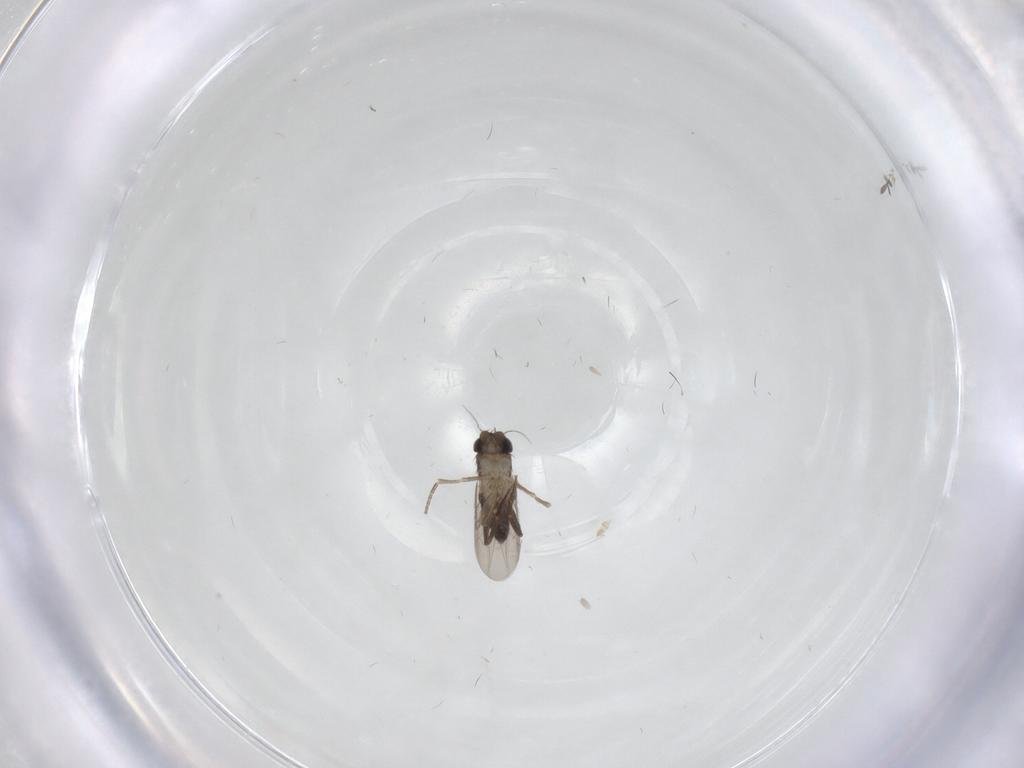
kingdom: Animalia
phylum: Arthropoda
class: Insecta
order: Diptera
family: Phoridae
